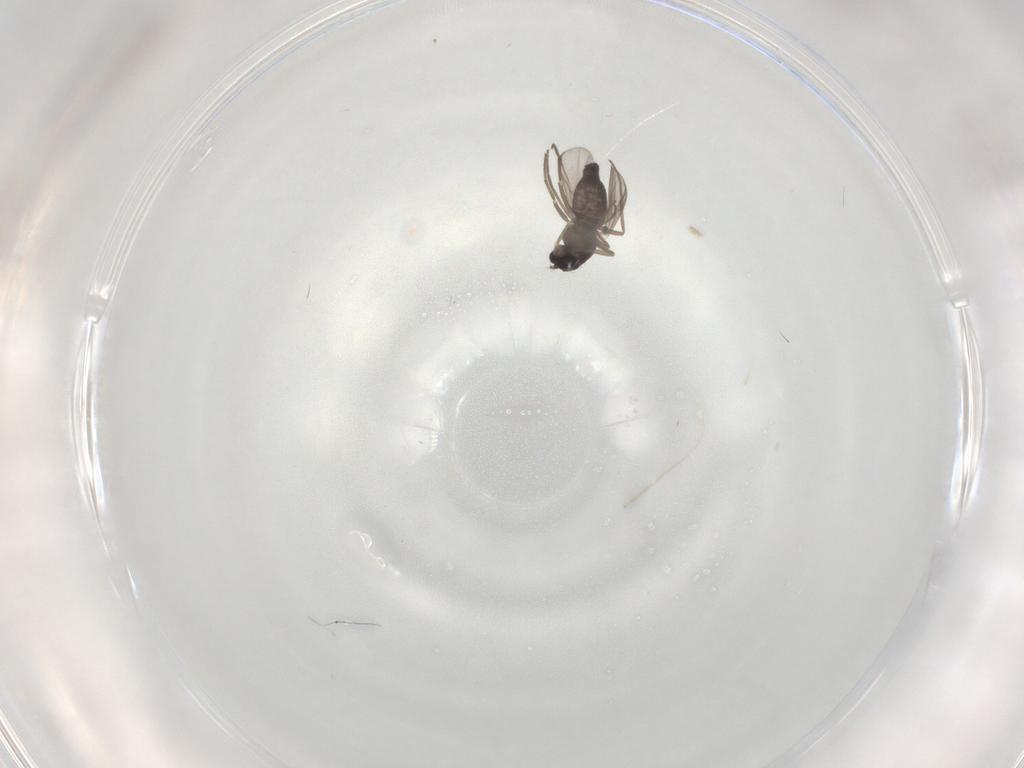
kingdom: Animalia
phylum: Arthropoda
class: Insecta
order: Diptera
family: Chironomidae
